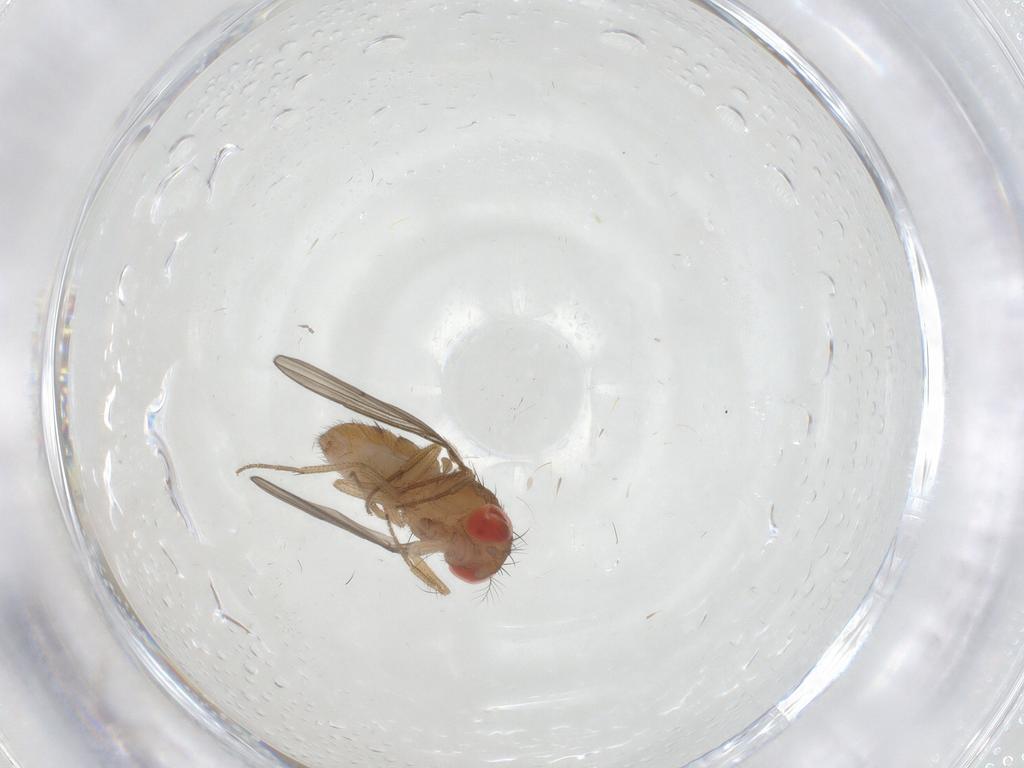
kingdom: Animalia
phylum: Arthropoda
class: Insecta
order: Diptera
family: Drosophilidae
